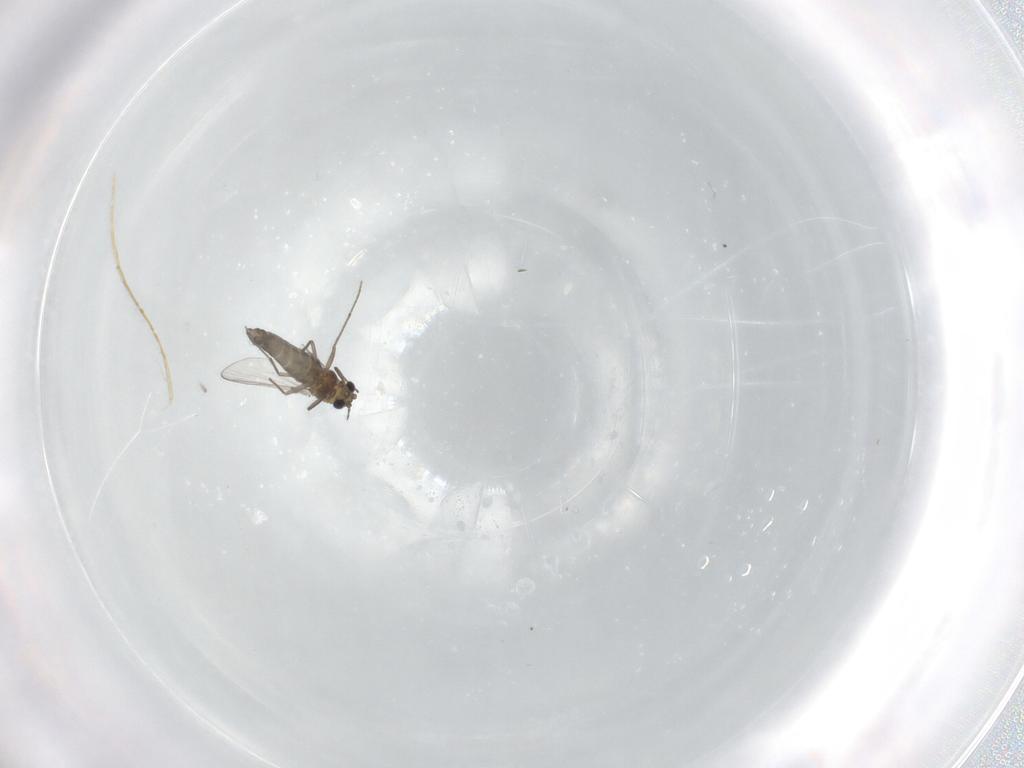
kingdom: Animalia
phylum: Arthropoda
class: Insecta
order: Diptera
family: Chironomidae
